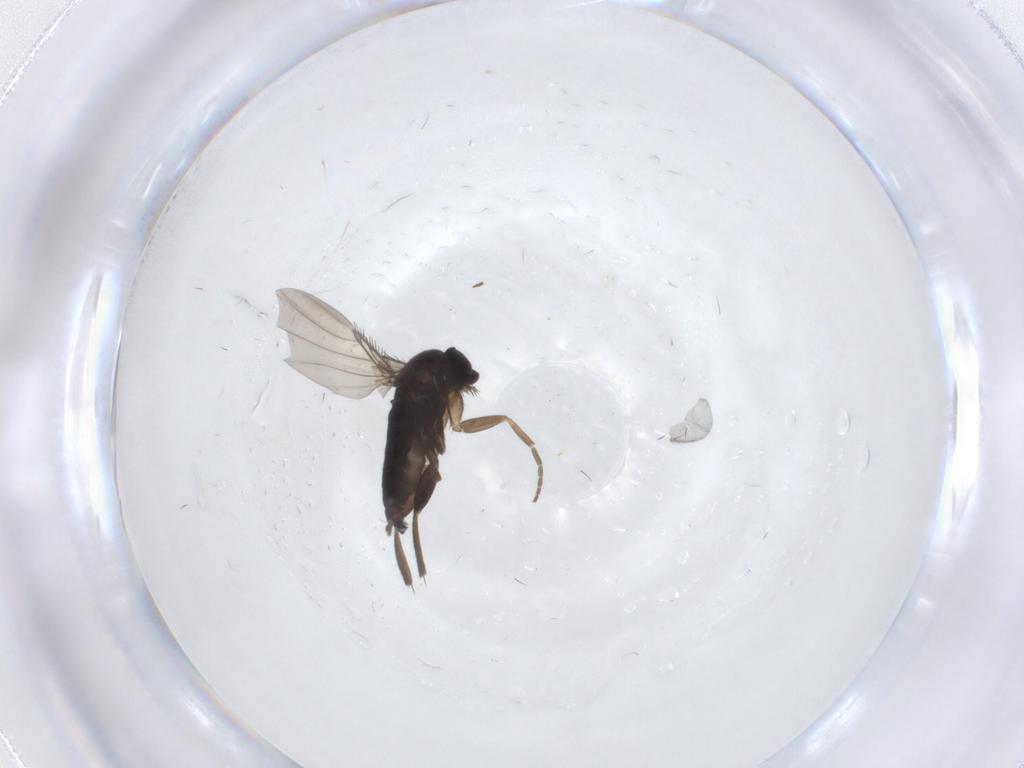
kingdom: Animalia
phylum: Arthropoda
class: Insecta
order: Diptera
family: Phoridae
